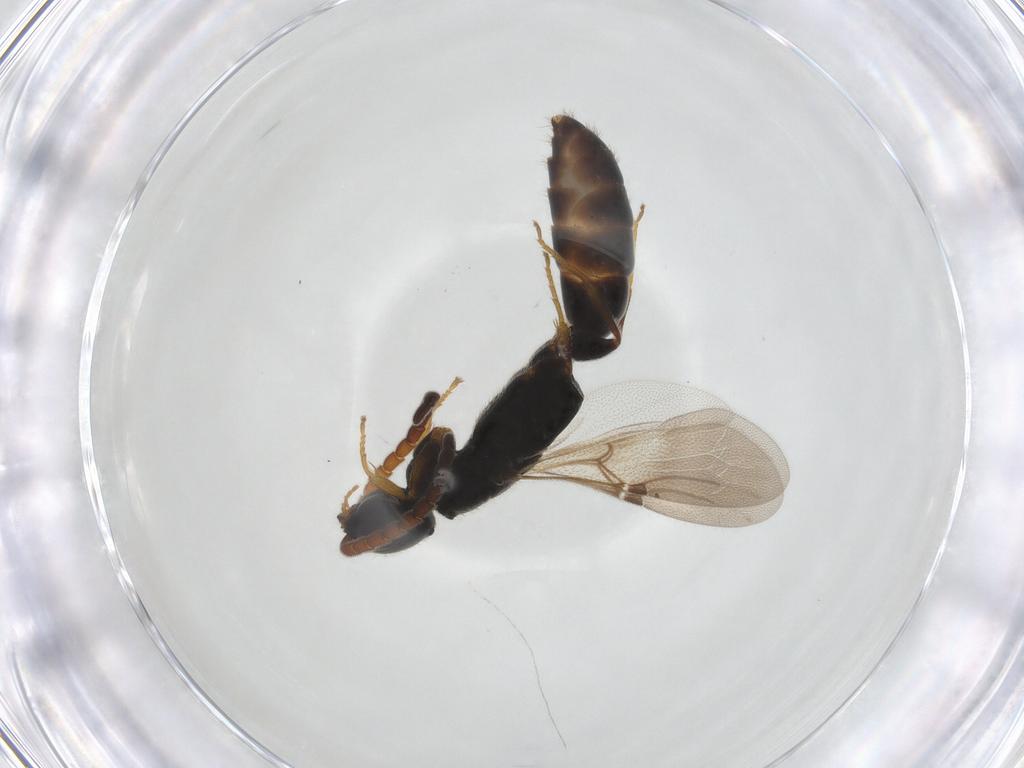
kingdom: Animalia
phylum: Arthropoda
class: Insecta
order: Hymenoptera
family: Bethylidae
